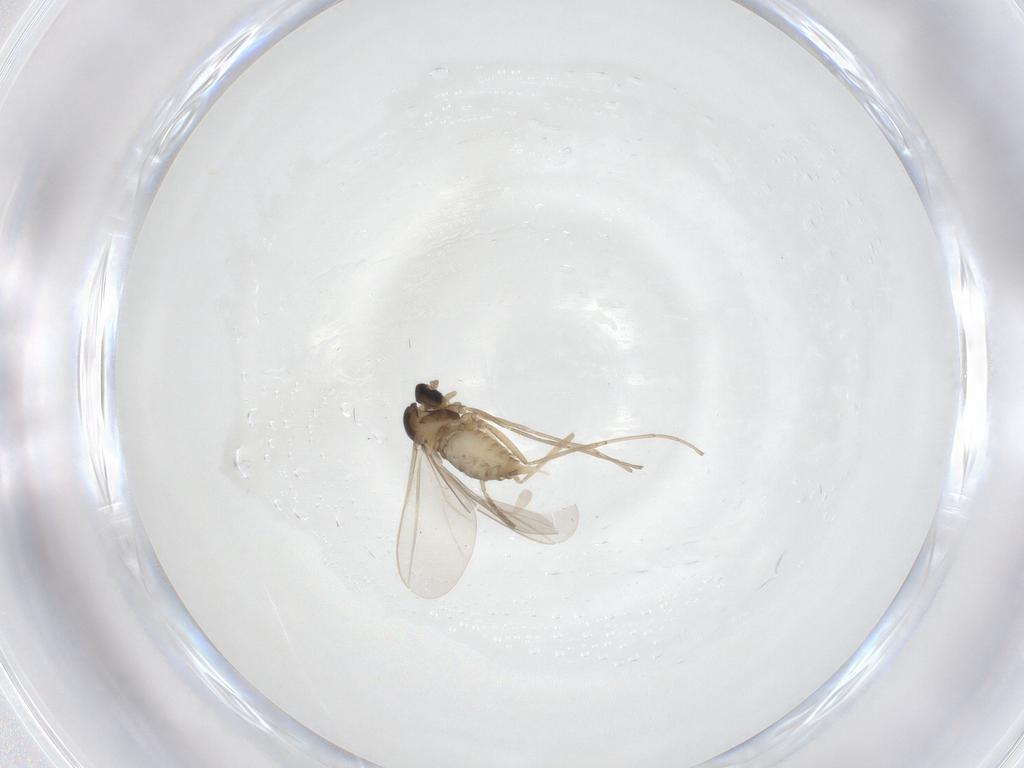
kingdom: Animalia
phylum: Arthropoda
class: Insecta
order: Diptera
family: Cecidomyiidae
